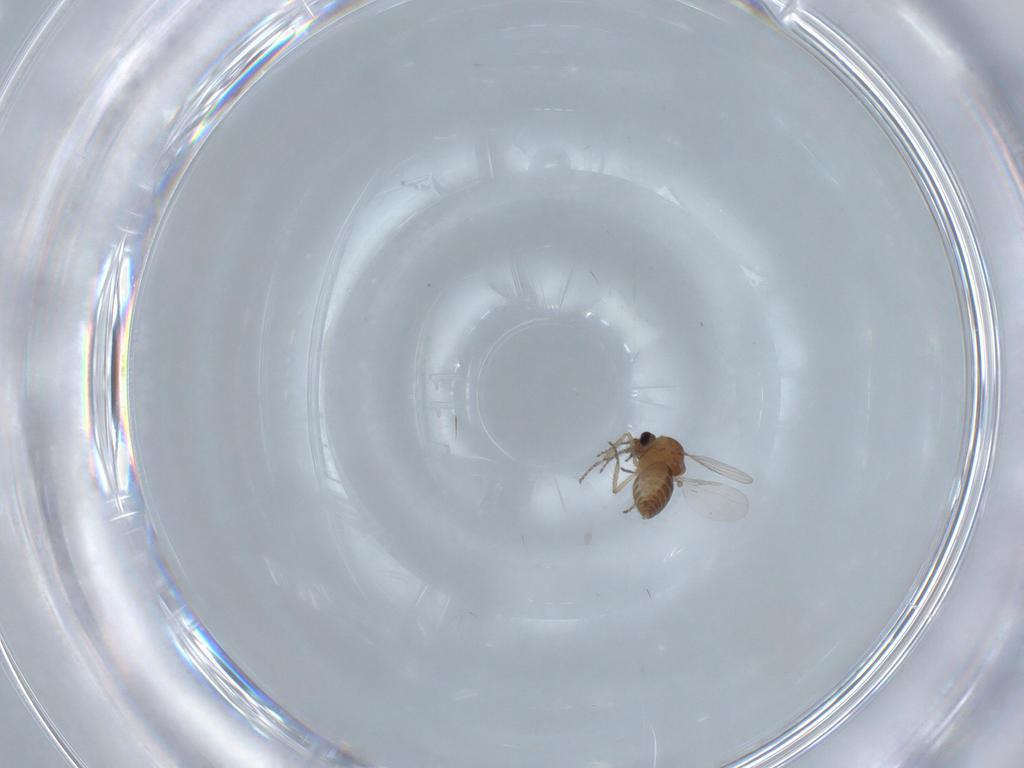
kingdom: Animalia
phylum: Arthropoda
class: Insecta
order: Diptera
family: Ceratopogonidae
